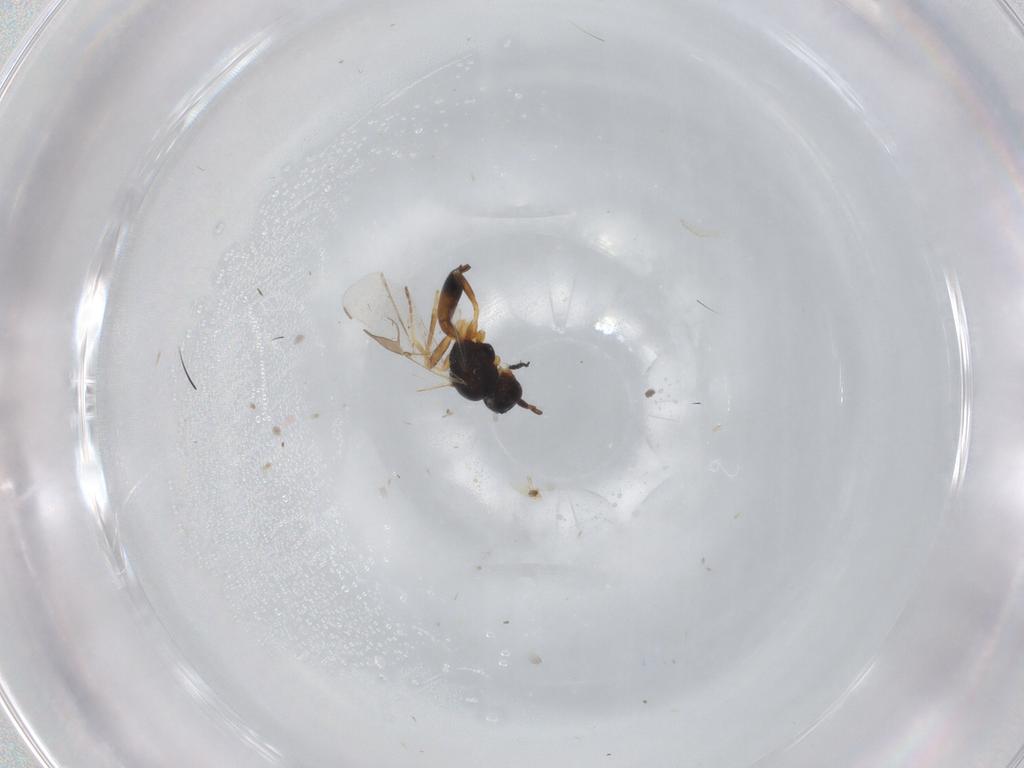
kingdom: Animalia
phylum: Arthropoda
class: Insecta
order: Hymenoptera
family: Braconidae
